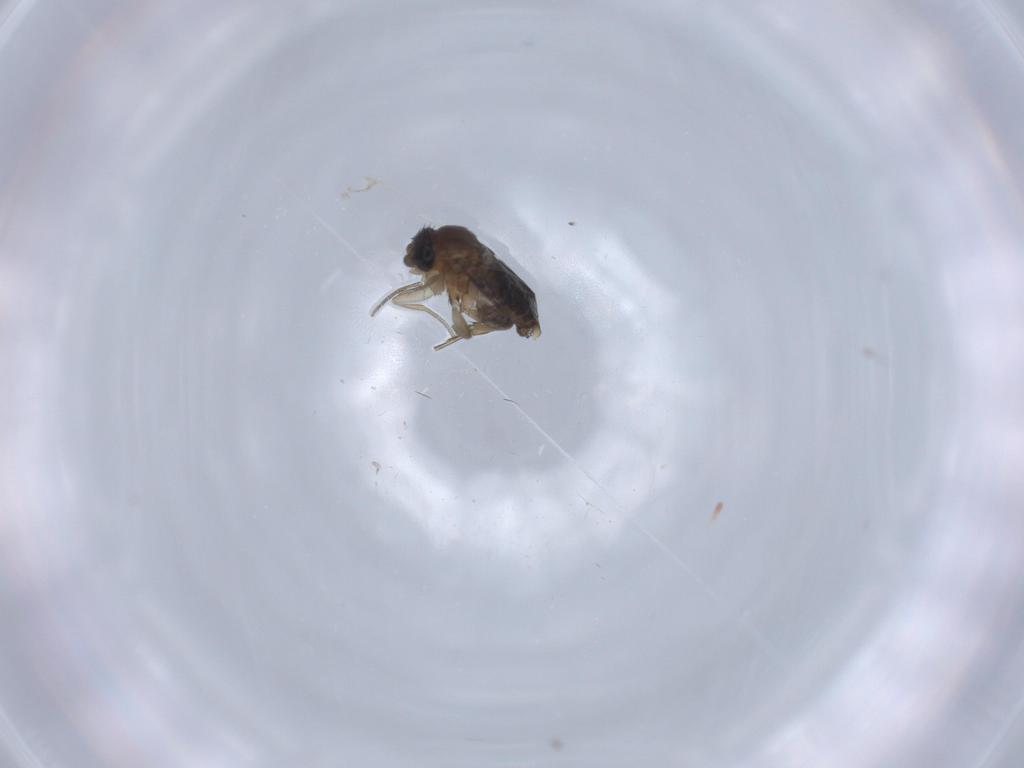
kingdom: Animalia
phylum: Arthropoda
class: Insecta
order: Diptera
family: Phoridae
